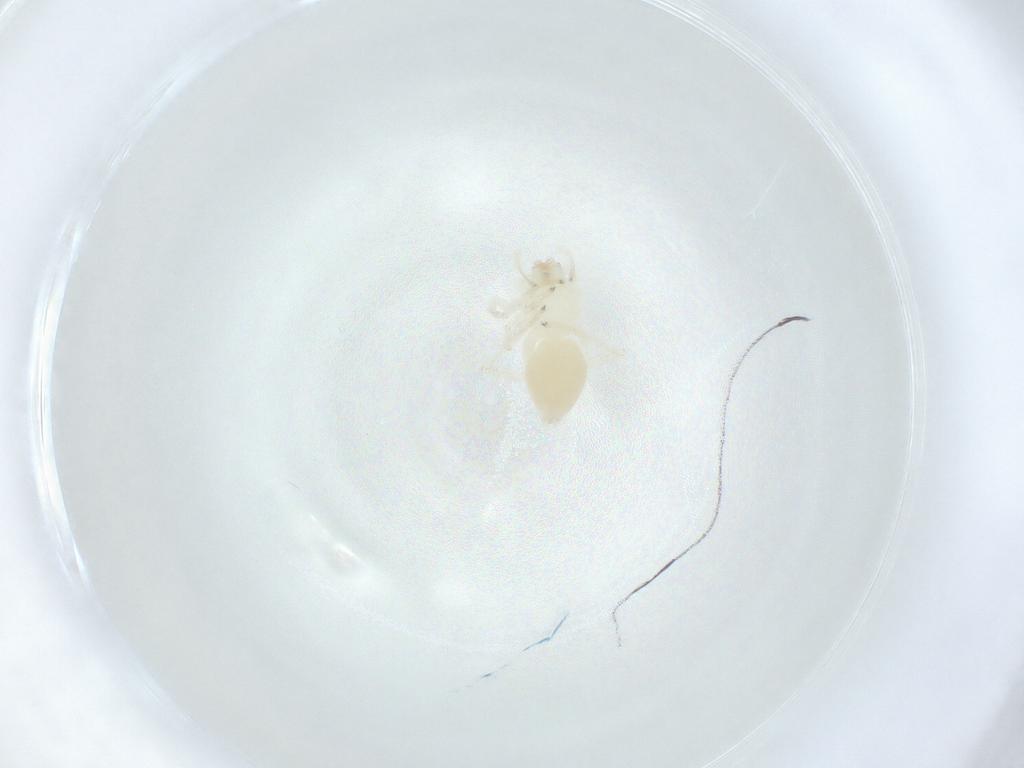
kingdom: Animalia
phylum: Arthropoda
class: Arachnida
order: Araneae
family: Anyphaenidae
